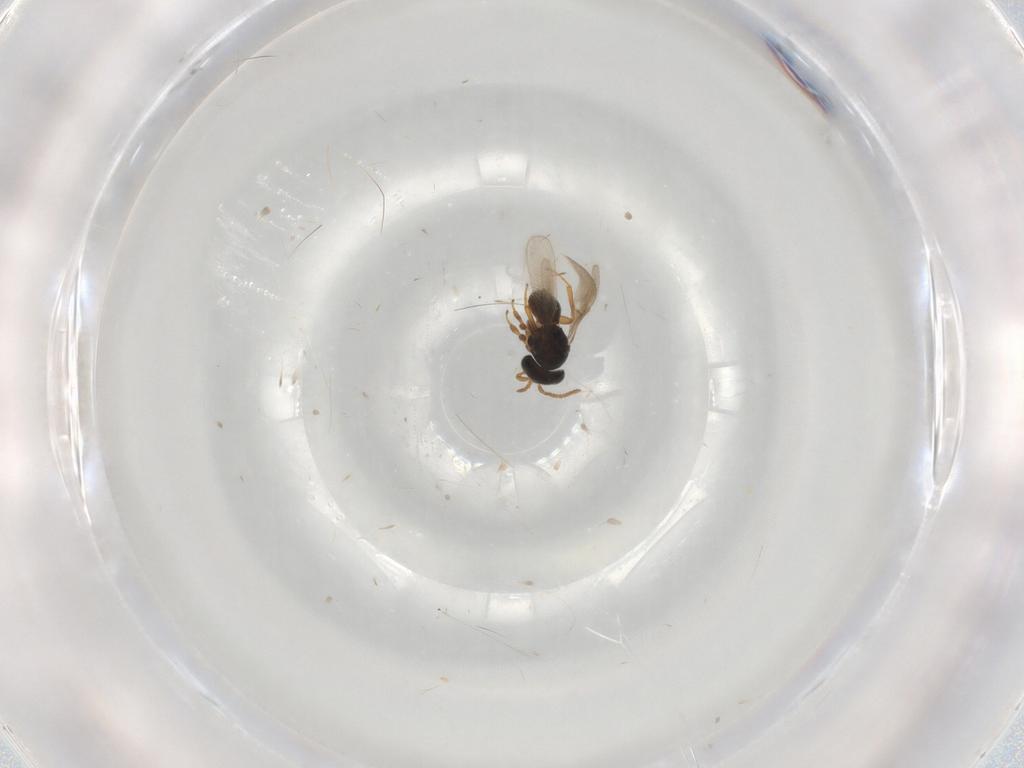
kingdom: Animalia
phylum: Arthropoda
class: Insecta
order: Hymenoptera
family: Scelionidae
